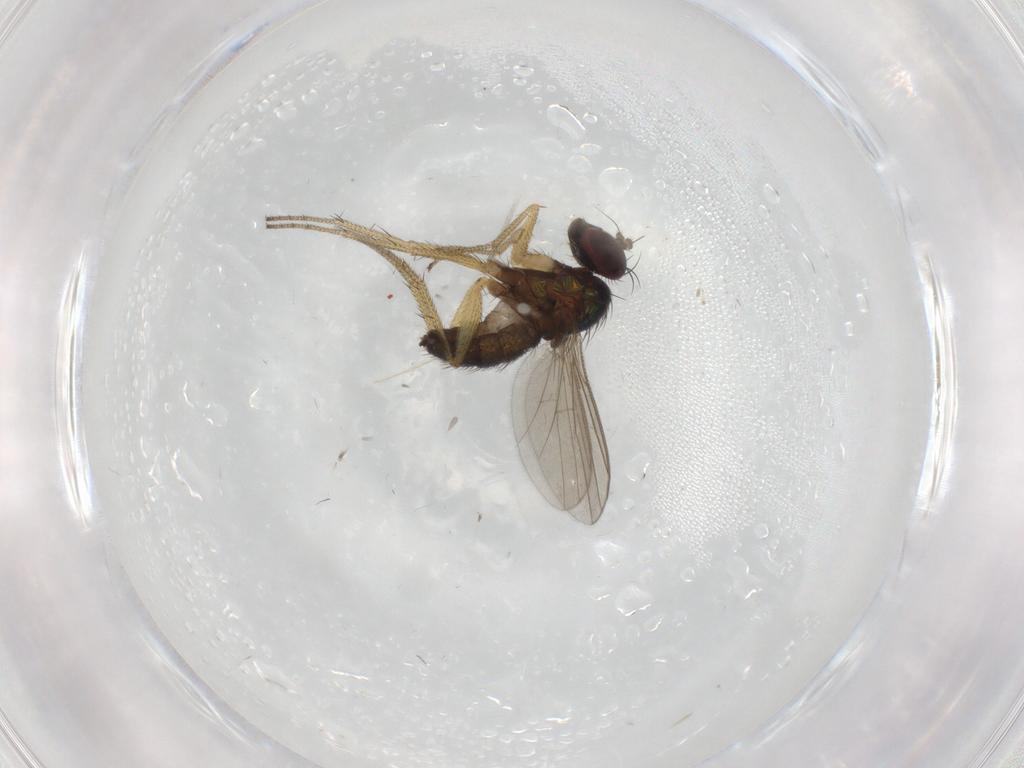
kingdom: Animalia
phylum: Arthropoda
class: Insecta
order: Diptera
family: Cecidomyiidae
